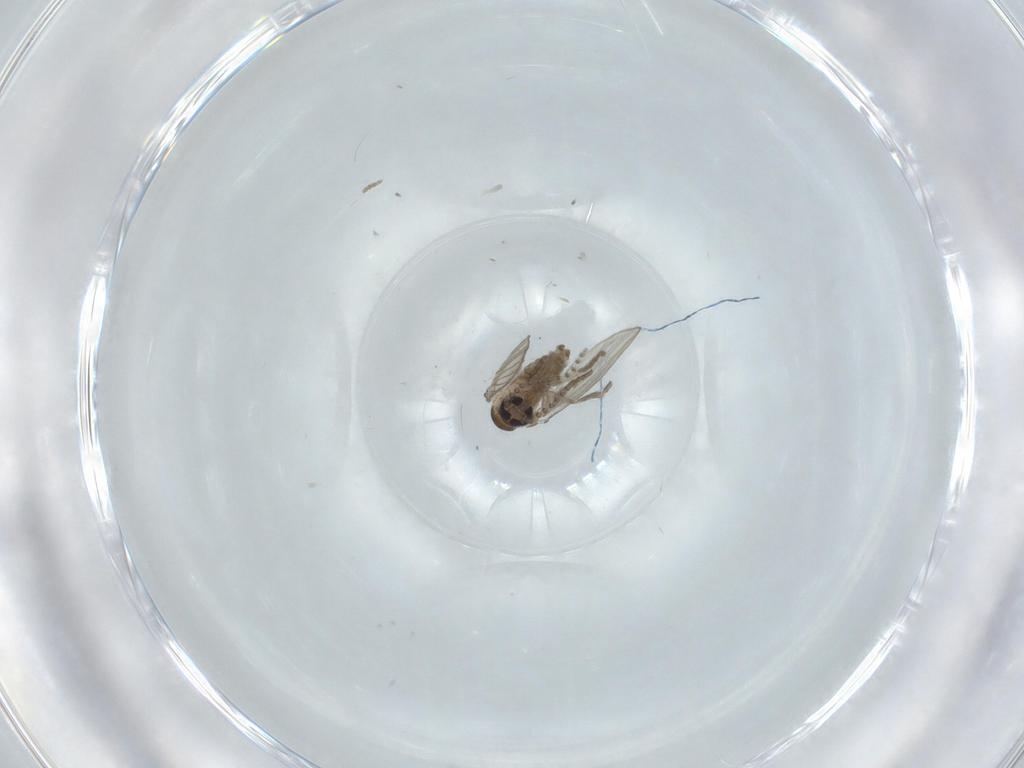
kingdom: Animalia
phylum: Arthropoda
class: Insecta
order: Diptera
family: Psychodidae
